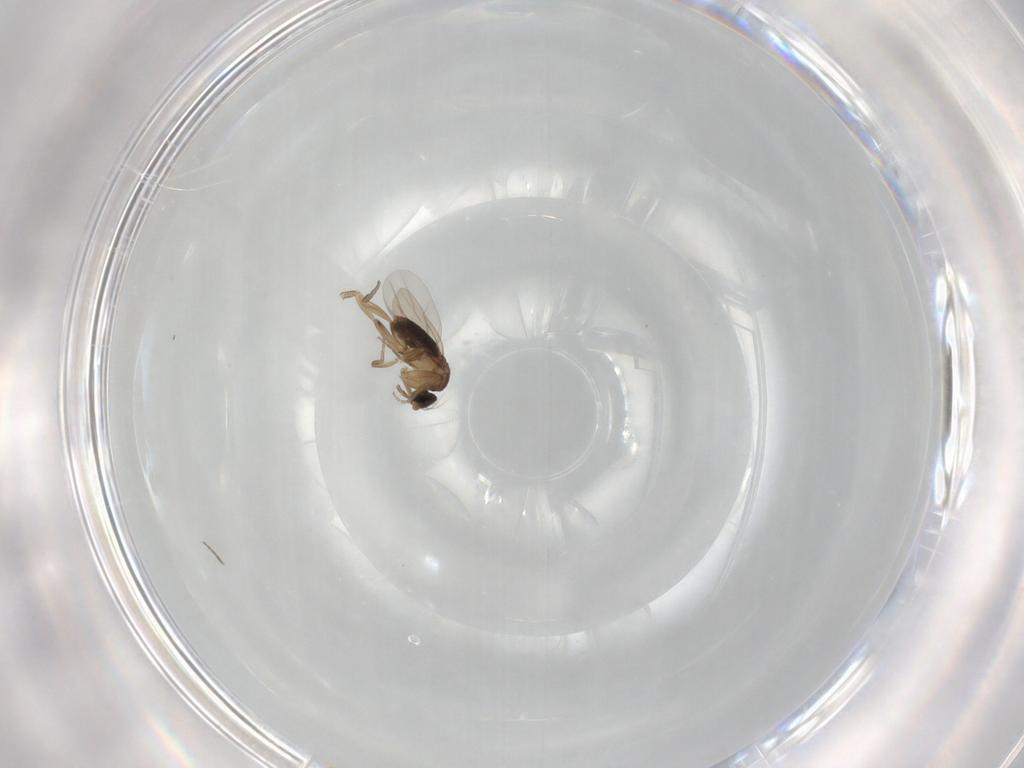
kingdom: Animalia
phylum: Arthropoda
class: Insecta
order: Diptera
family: Phoridae
